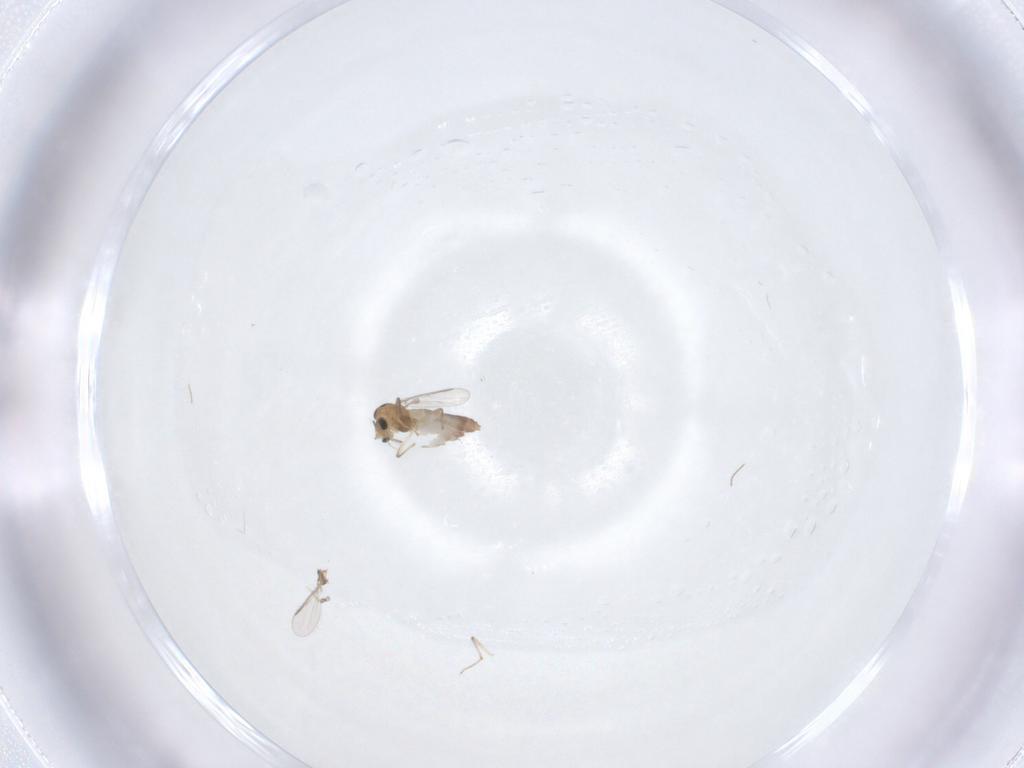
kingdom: Animalia
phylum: Arthropoda
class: Insecta
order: Diptera
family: Chironomidae
